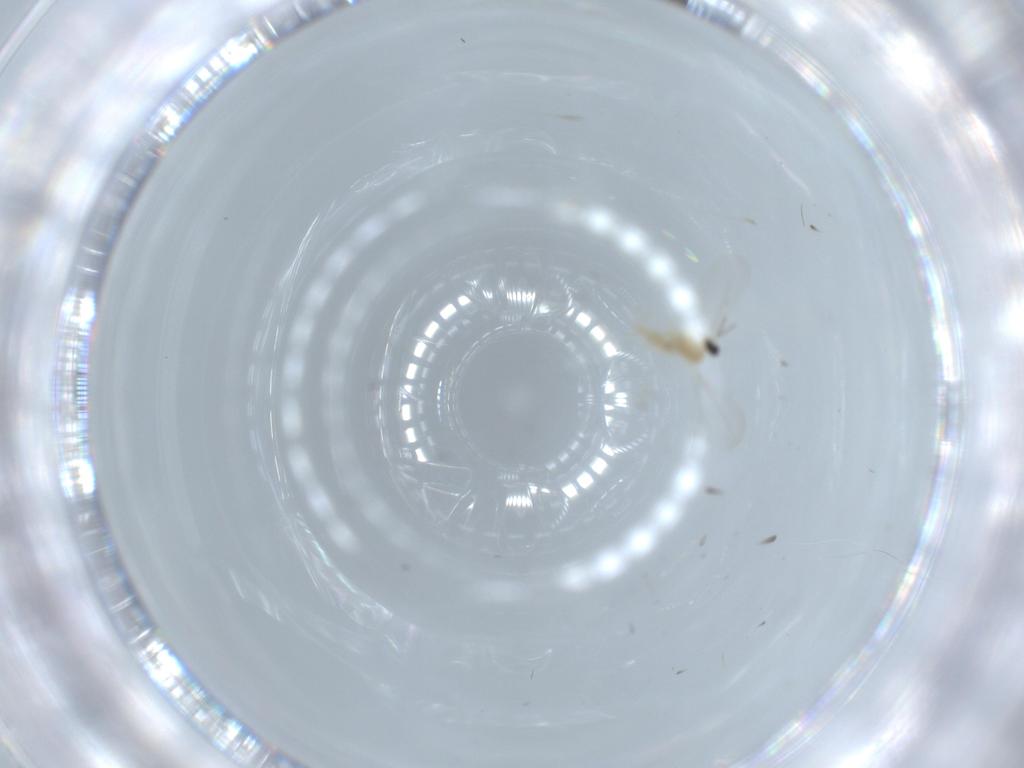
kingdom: Animalia
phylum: Arthropoda
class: Insecta
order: Diptera
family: Cecidomyiidae
